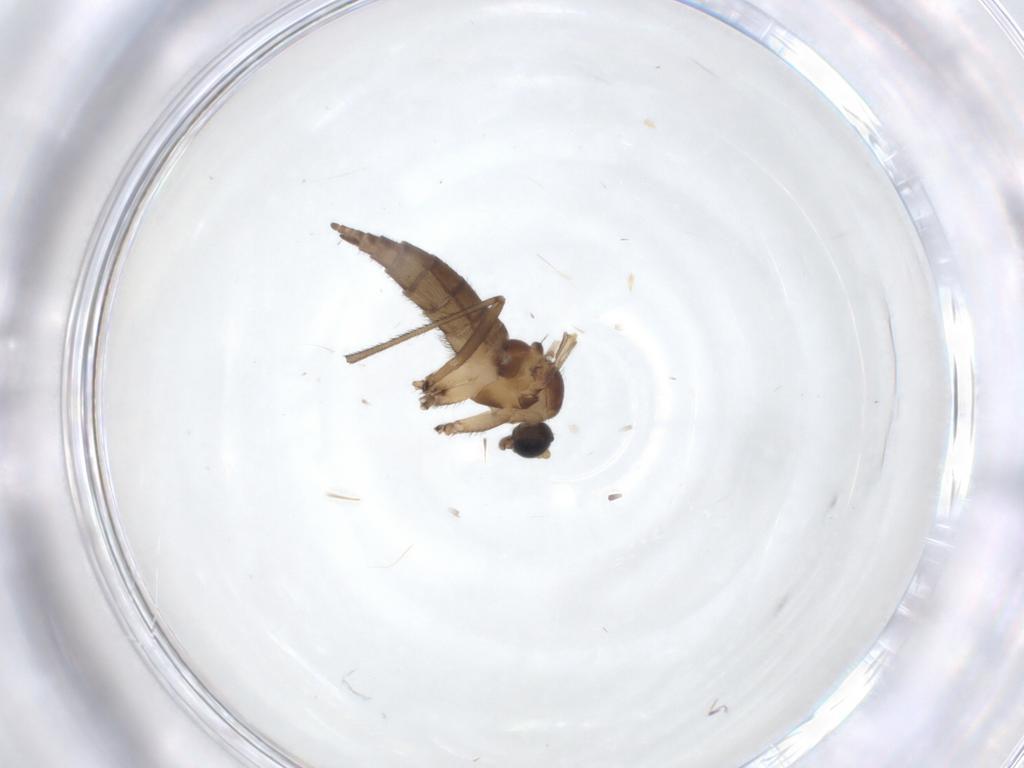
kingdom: Animalia
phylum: Arthropoda
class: Insecta
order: Diptera
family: Sciaridae
